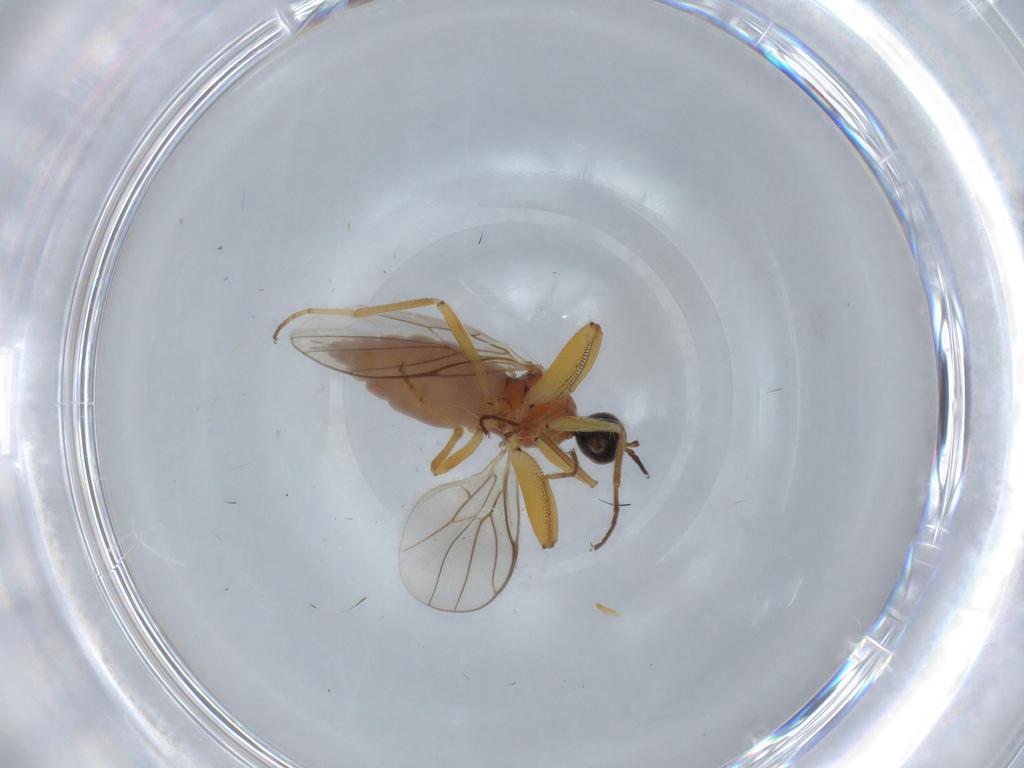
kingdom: Animalia
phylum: Arthropoda
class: Insecta
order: Diptera
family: Hybotidae
